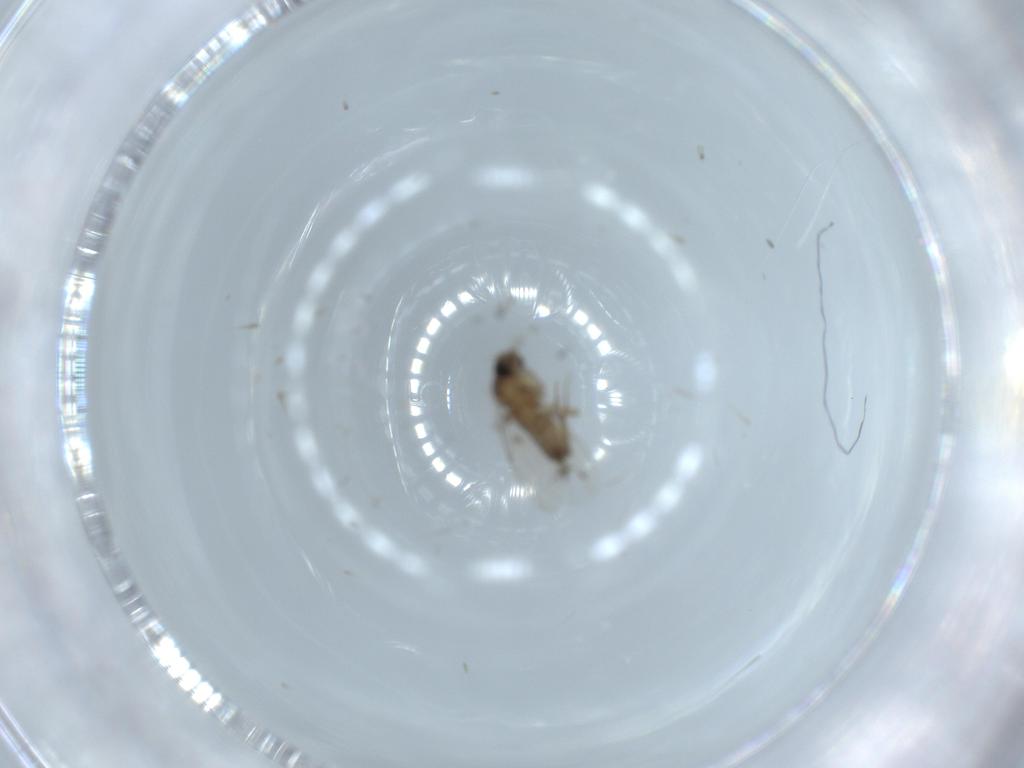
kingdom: Animalia
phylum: Arthropoda
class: Insecta
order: Diptera
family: Phoridae
